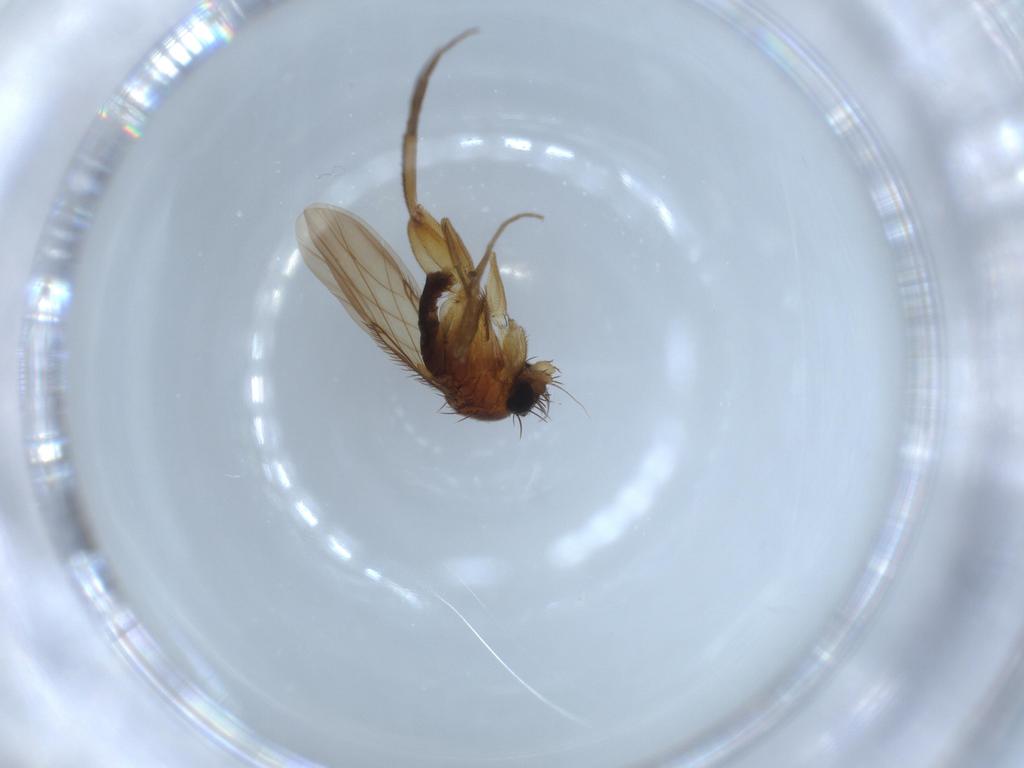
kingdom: Animalia
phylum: Arthropoda
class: Insecta
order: Diptera
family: Phoridae
